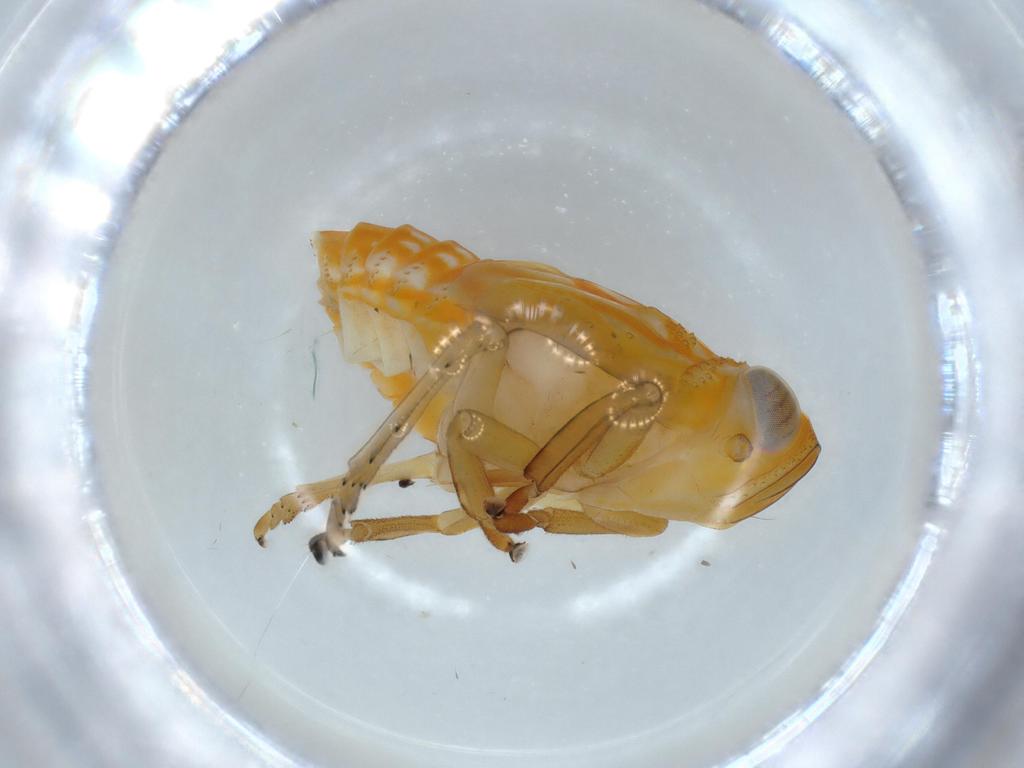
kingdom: Animalia
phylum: Arthropoda
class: Insecta
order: Hemiptera
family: Issidae
